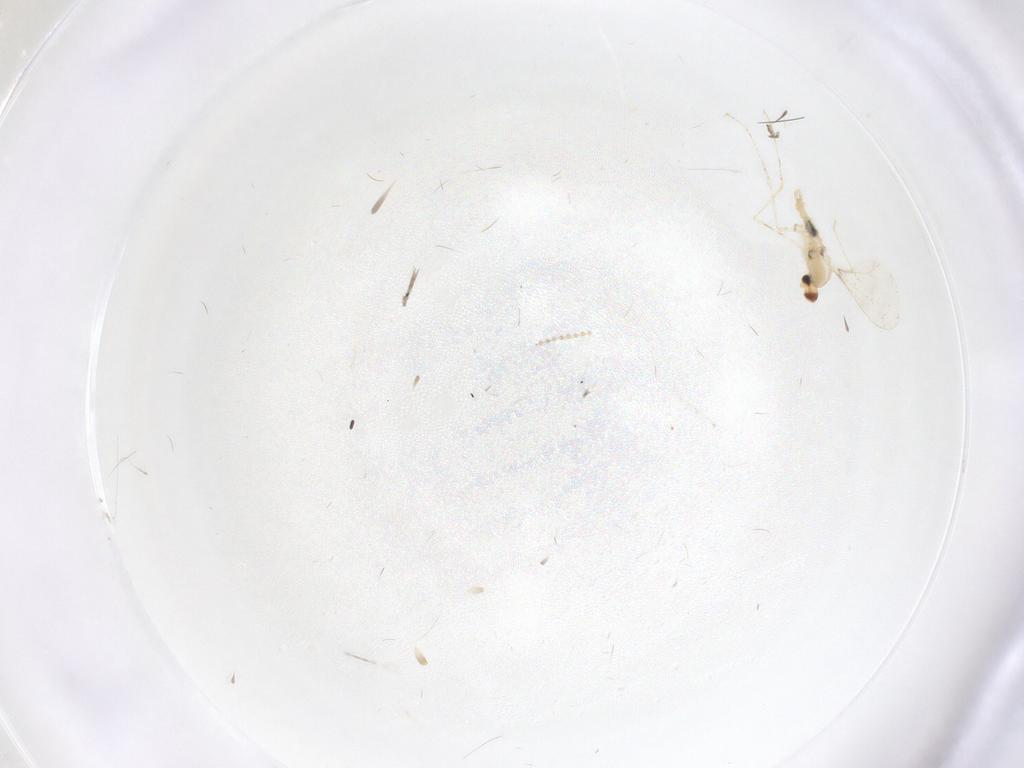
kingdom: Animalia
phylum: Arthropoda
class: Insecta
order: Diptera
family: Cecidomyiidae
